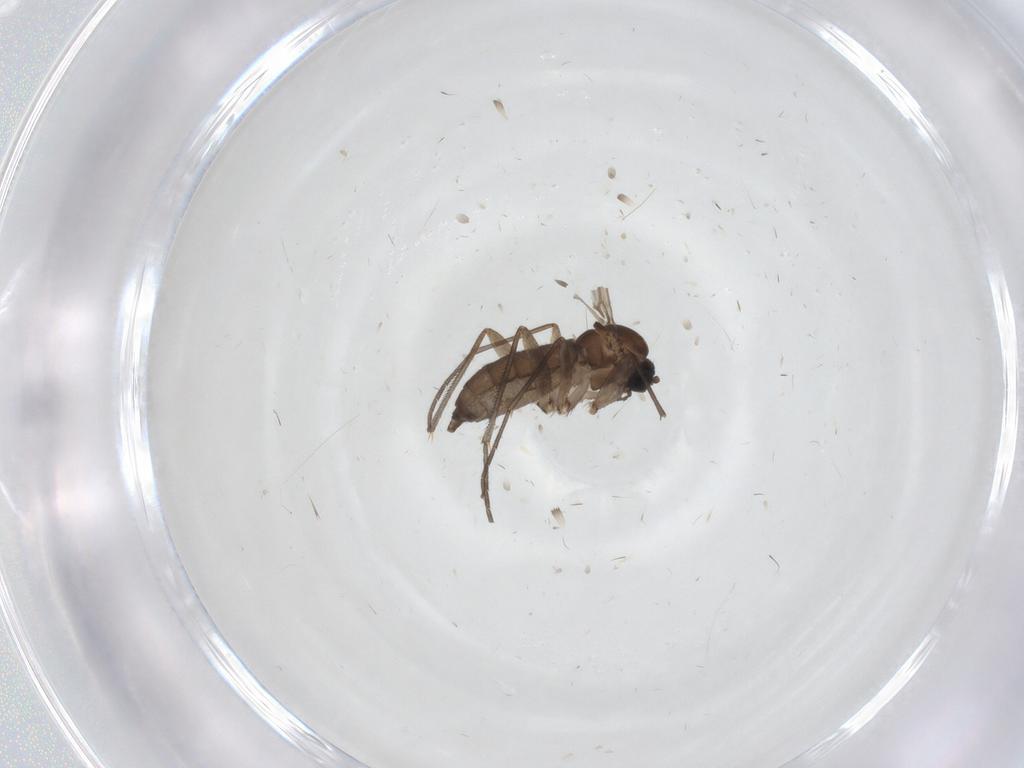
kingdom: Animalia
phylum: Arthropoda
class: Insecta
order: Diptera
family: Sciaridae
